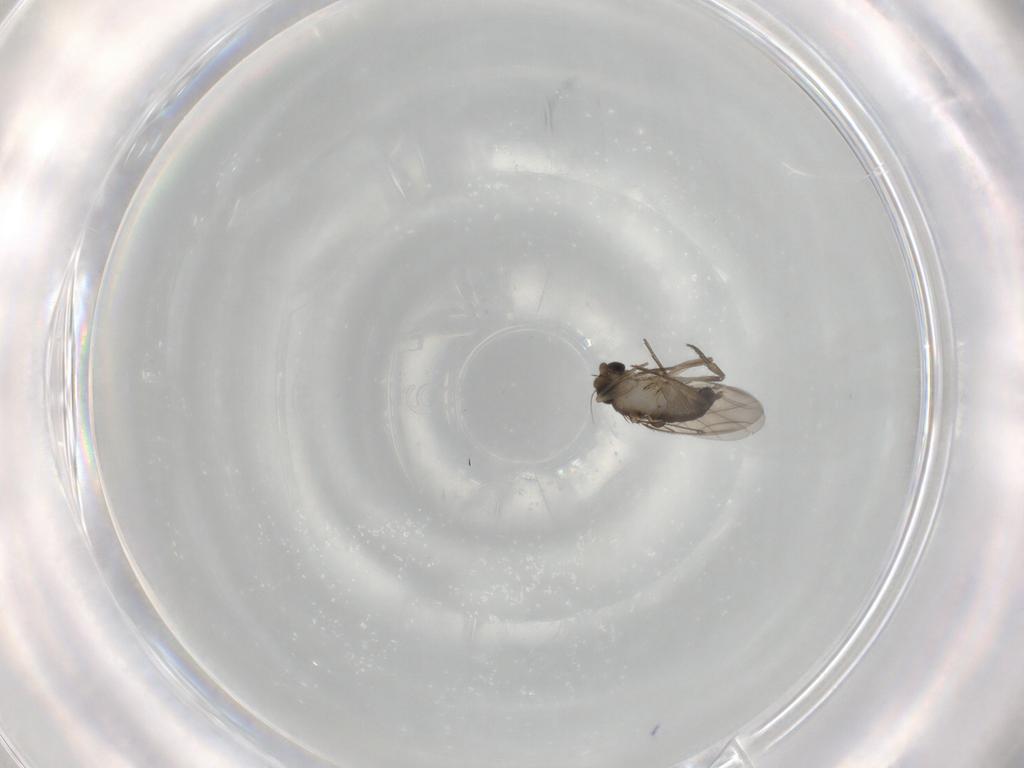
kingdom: Animalia
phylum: Arthropoda
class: Insecta
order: Diptera
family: Phoridae
